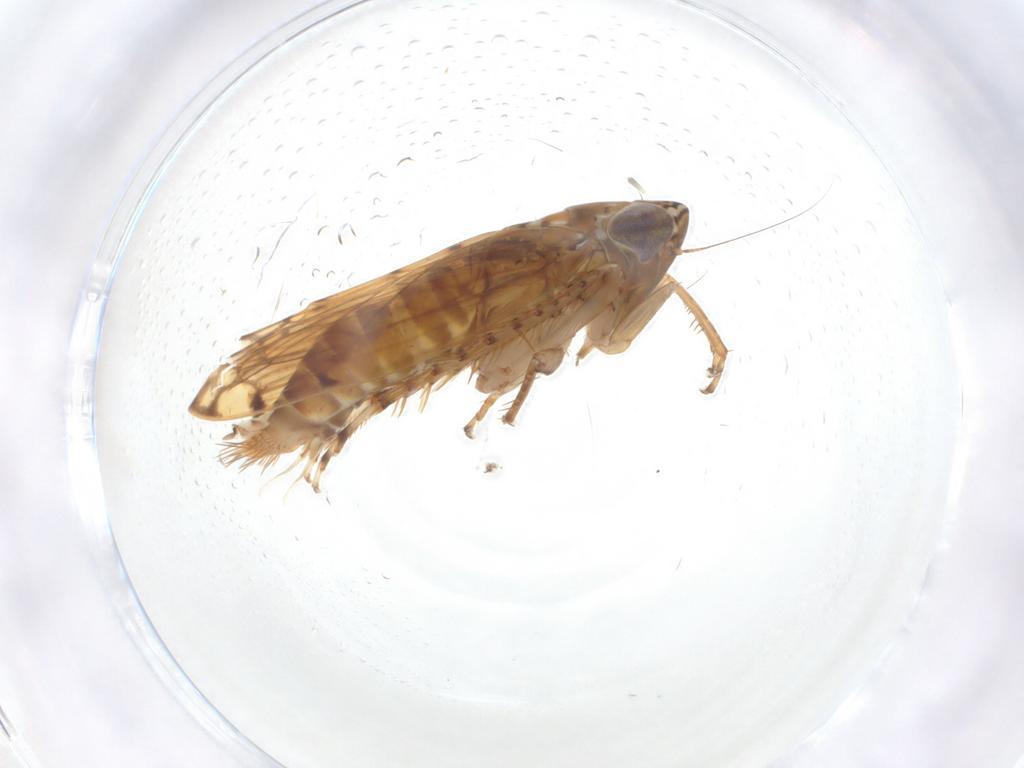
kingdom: Animalia
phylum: Arthropoda
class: Insecta
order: Hemiptera
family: Cicadellidae
